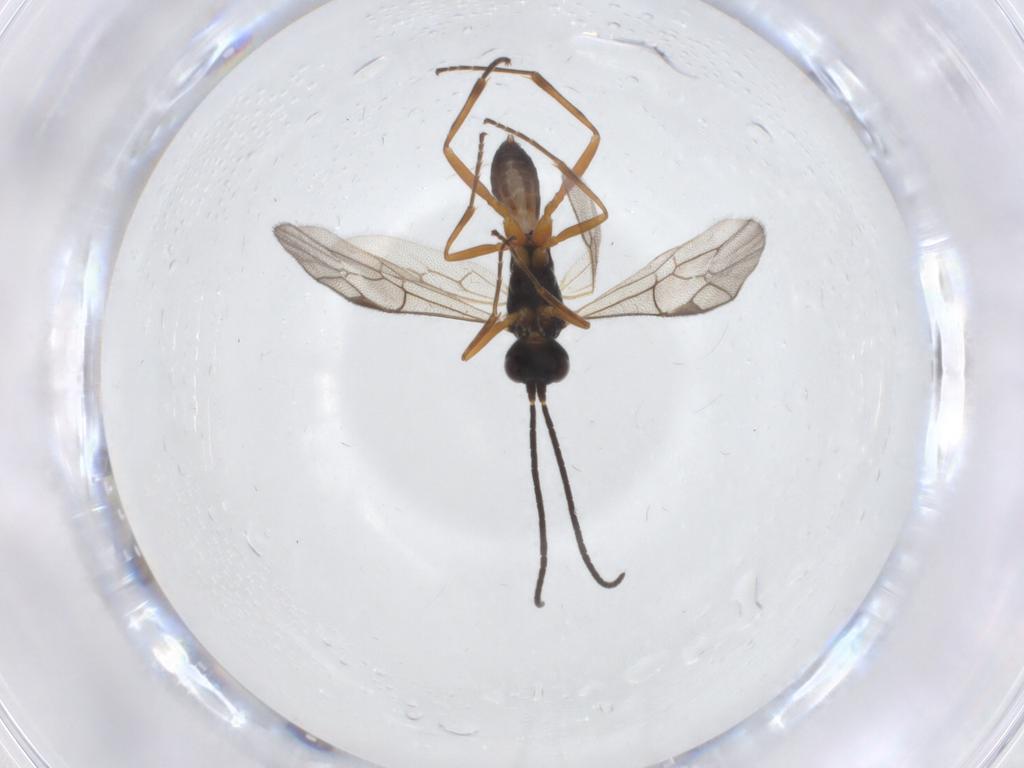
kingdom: Animalia
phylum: Arthropoda
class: Insecta
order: Hymenoptera
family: Ichneumonidae
